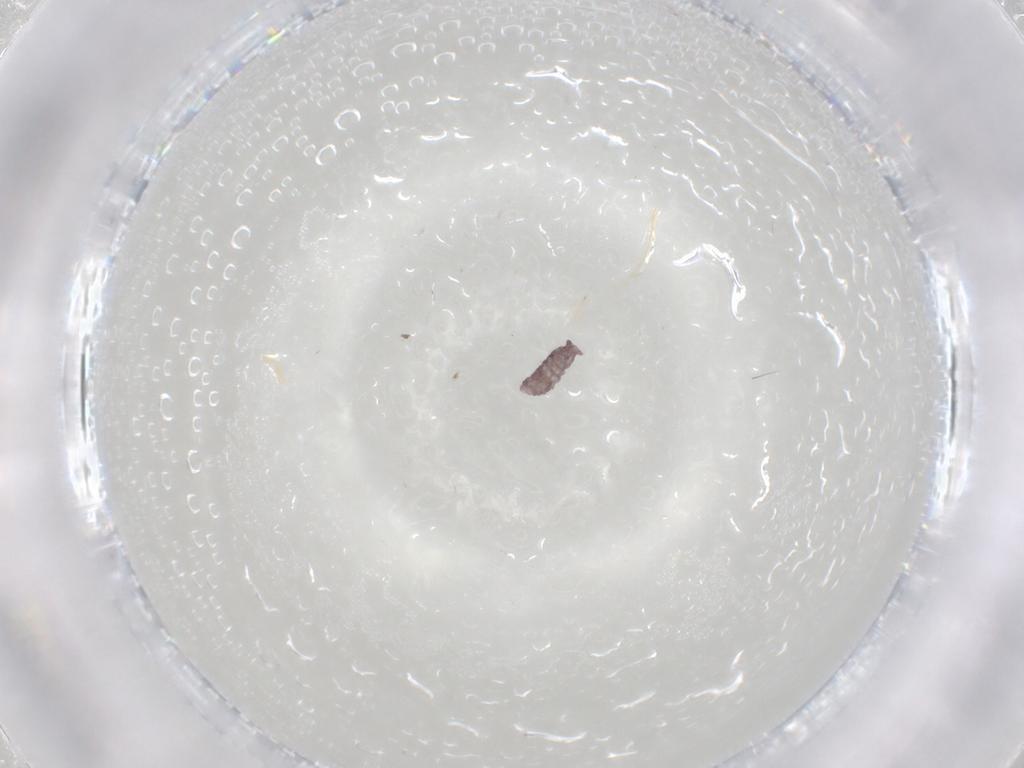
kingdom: Animalia
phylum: Arthropoda
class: Collembola
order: Poduromorpha
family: Hypogastruridae
